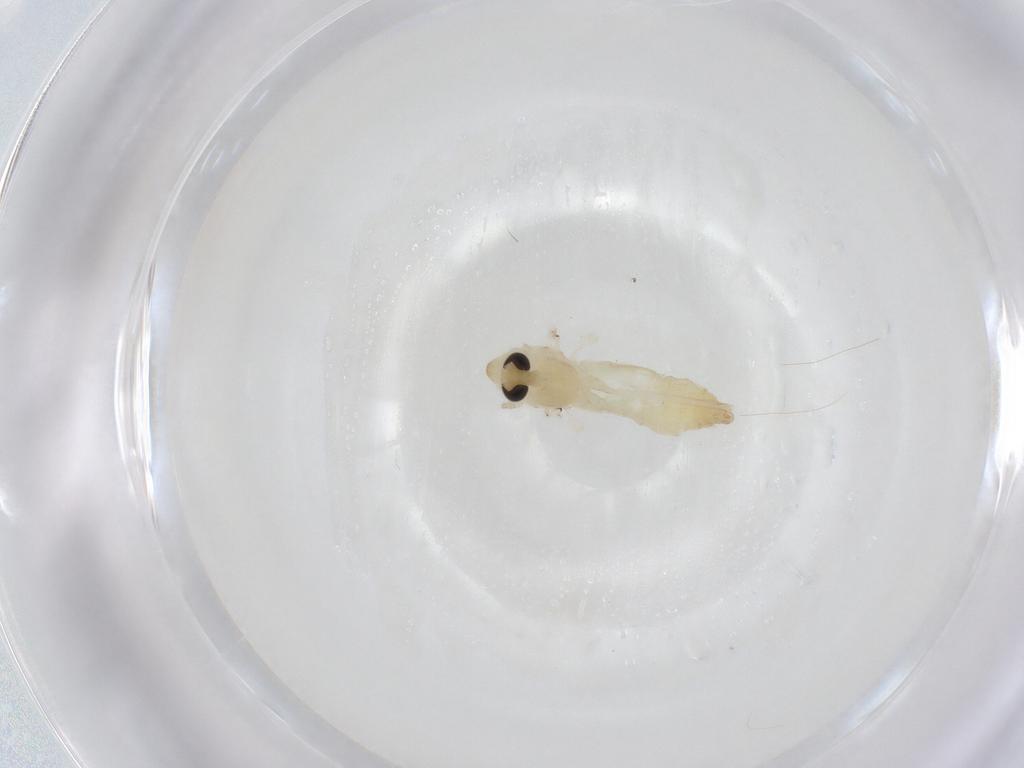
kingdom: Animalia
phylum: Arthropoda
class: Insecta
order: Diptera
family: Chironomidae
